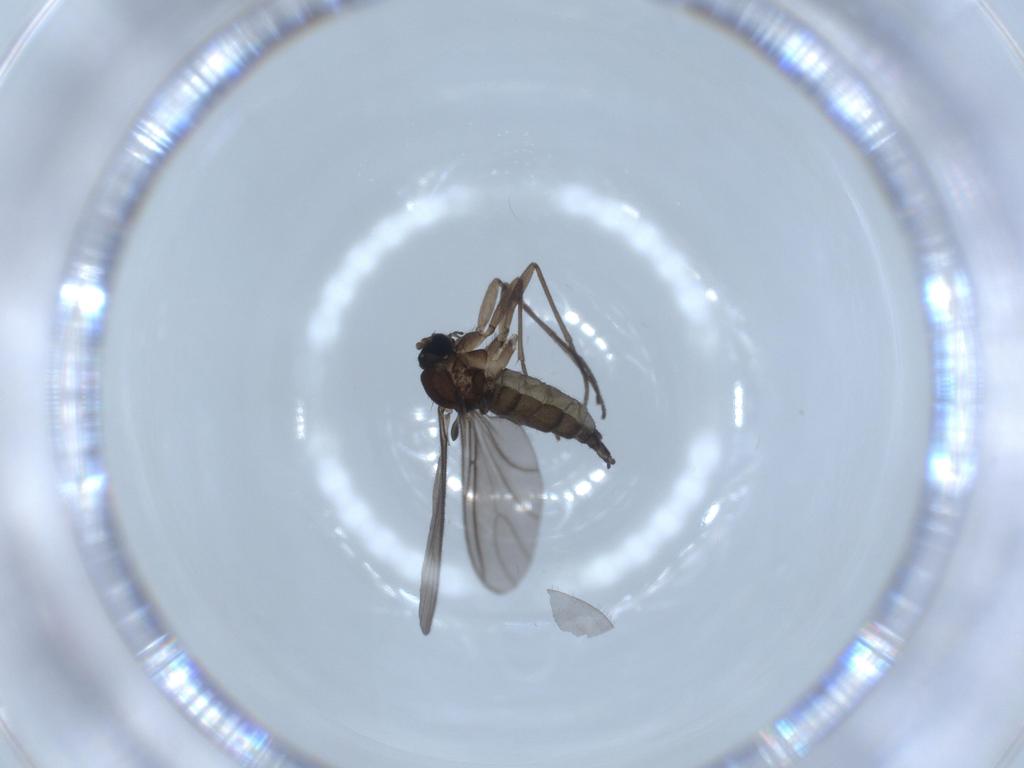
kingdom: Animalia
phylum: Arthropoda
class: Insecta
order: Diptera
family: Sciaridae
